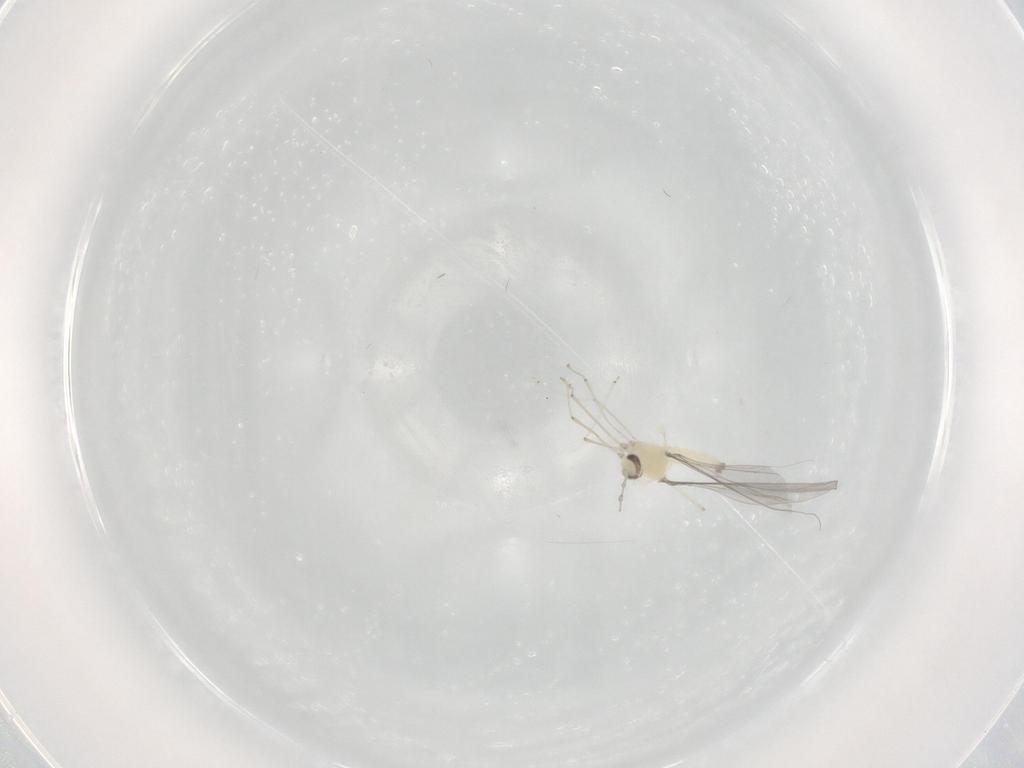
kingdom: Animalia
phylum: Arthropoda
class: Insecta
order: Diptera
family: Cecidomyiidae
